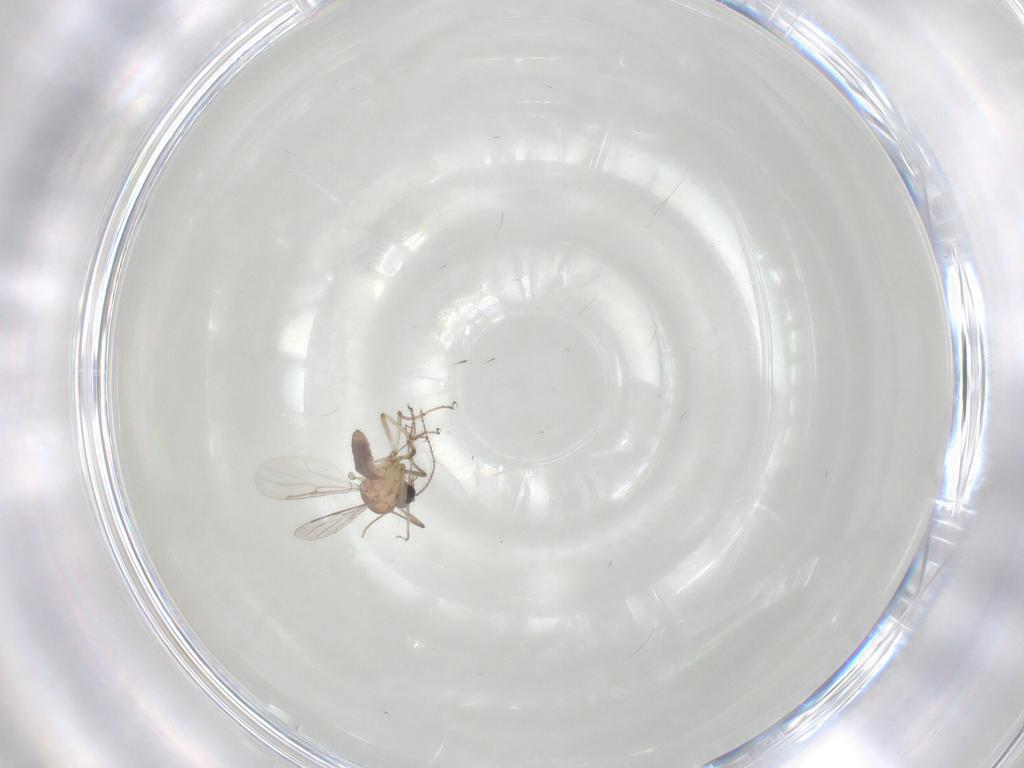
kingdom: Animalia
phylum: Arthropoda
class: Insecta
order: Diptera
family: Chironomidae
